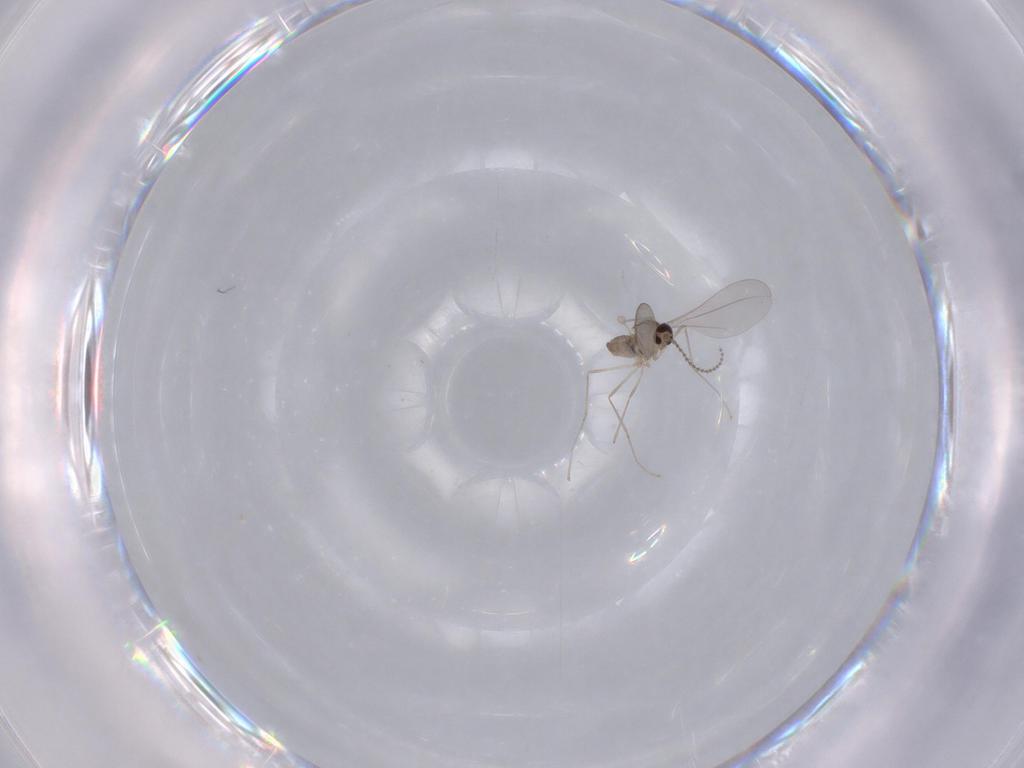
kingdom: Animalia
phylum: Arthropoda
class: Insecta
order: Diptera
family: Cecidomyiidae
